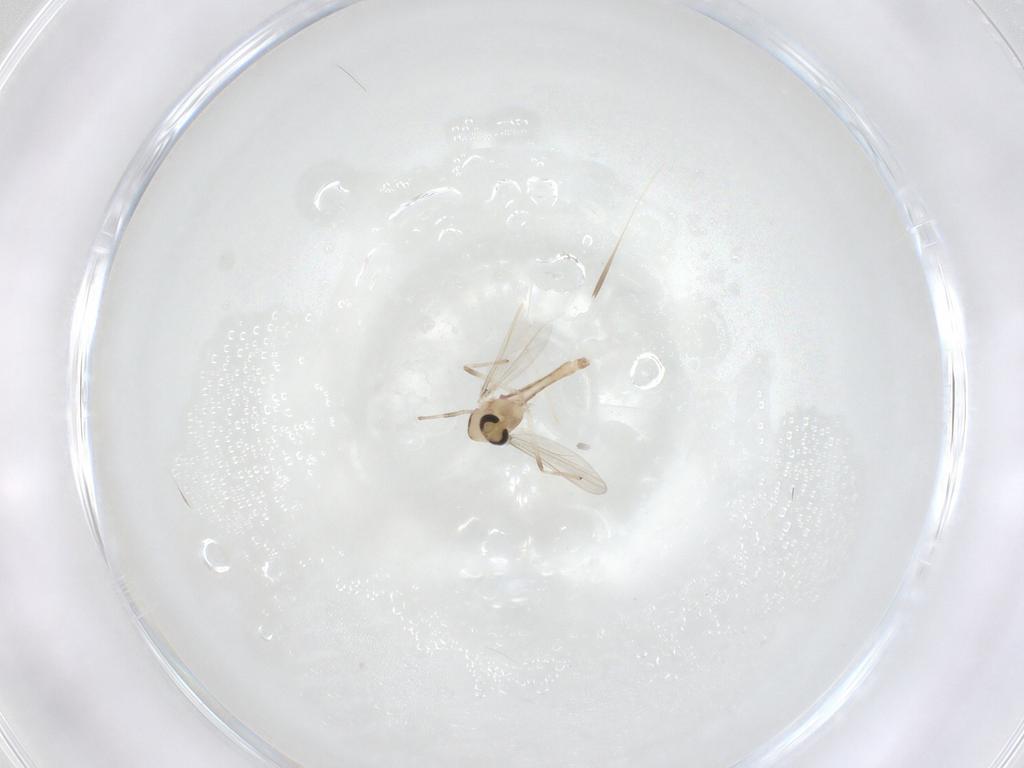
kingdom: Animalia
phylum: Arthropoda
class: Insecta
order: Diptera
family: Chironomidae
